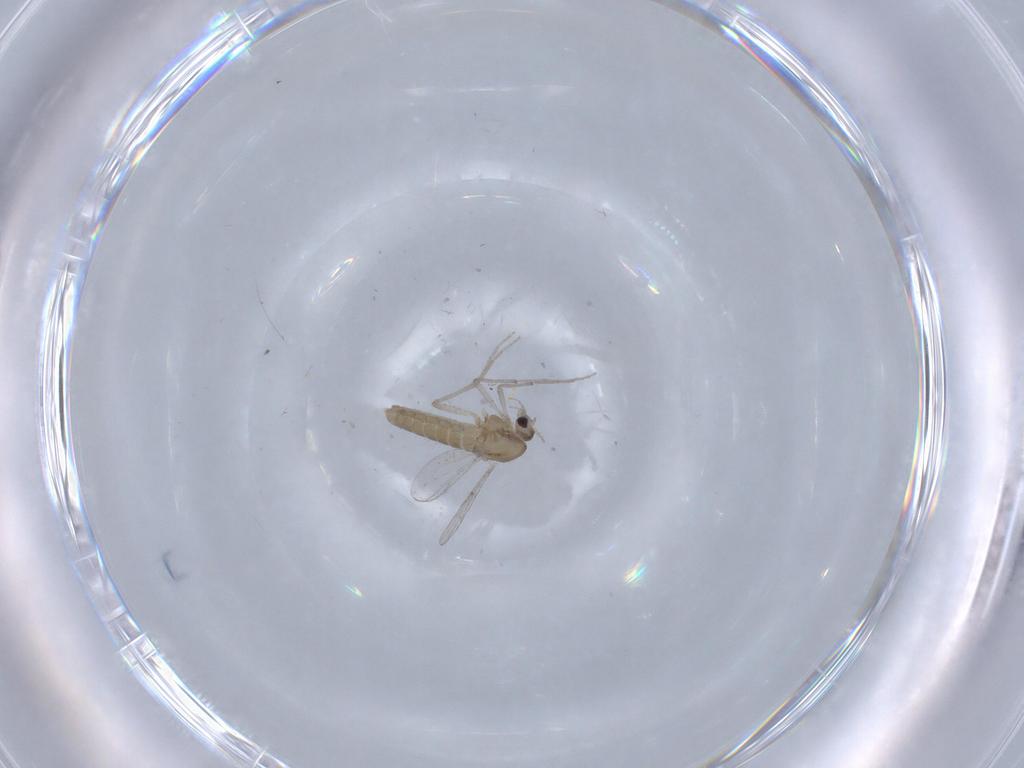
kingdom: Animalia
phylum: Arthropoda
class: Insecta
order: Diptera
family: Chironomidae
